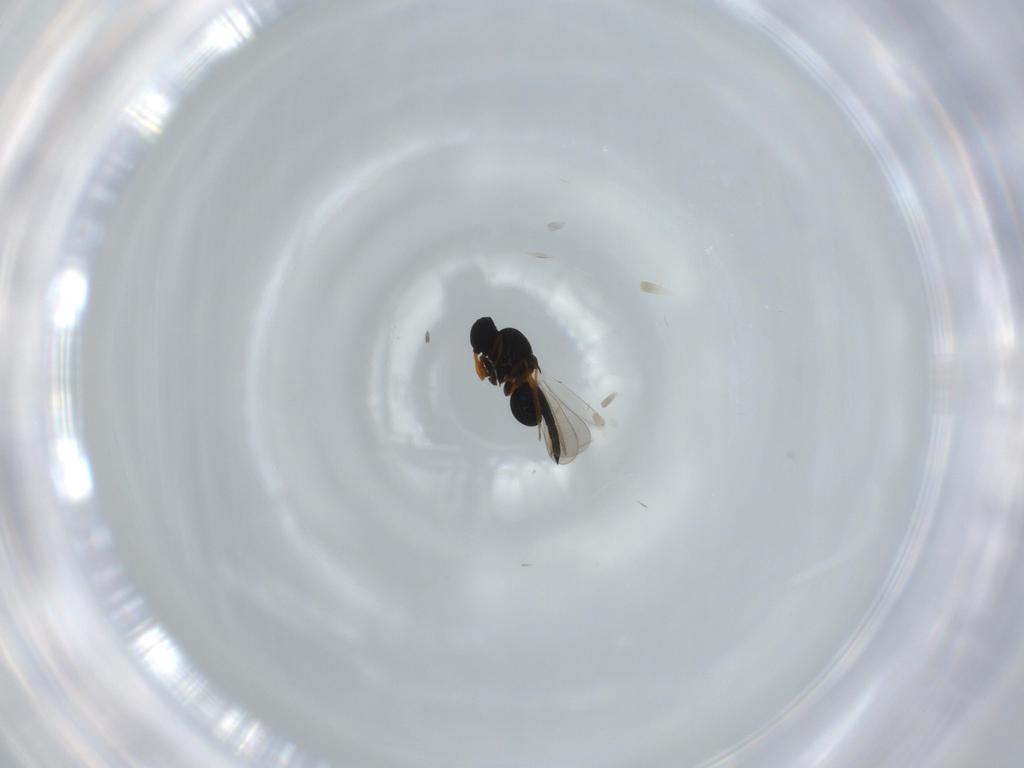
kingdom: Animalia
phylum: Arthropoda
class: Insecta
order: Hymenoptera
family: Platygastridae
